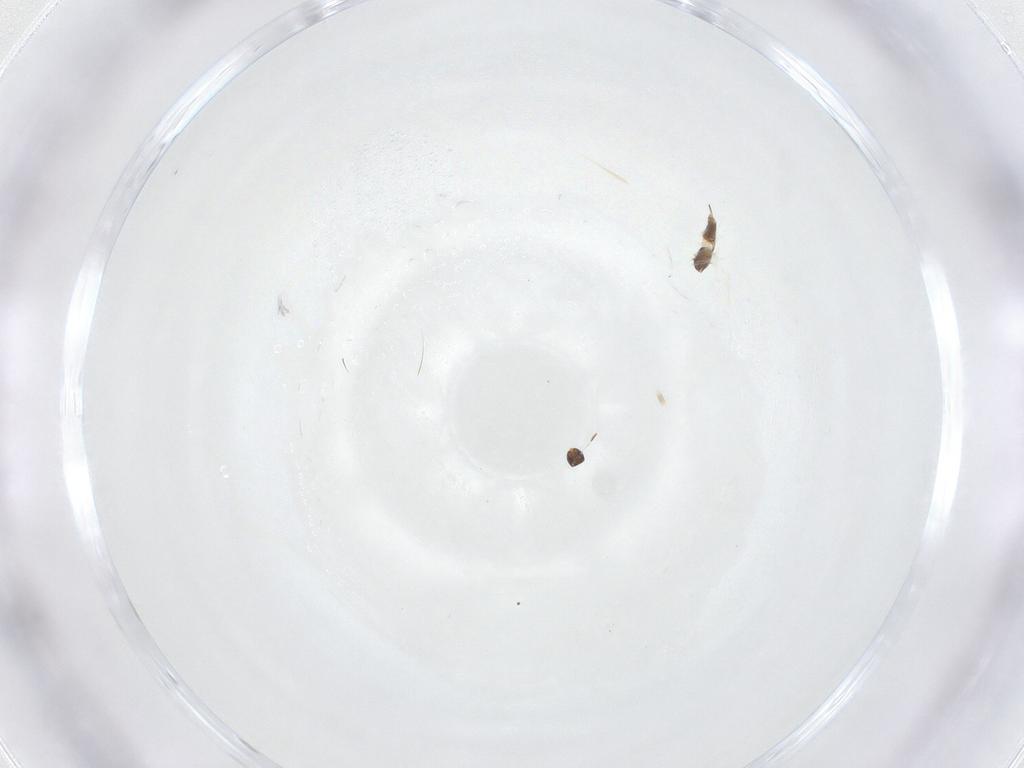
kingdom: Animalia
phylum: Arthropoda
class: Insecta
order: Lepidoptera
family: Geometridae
